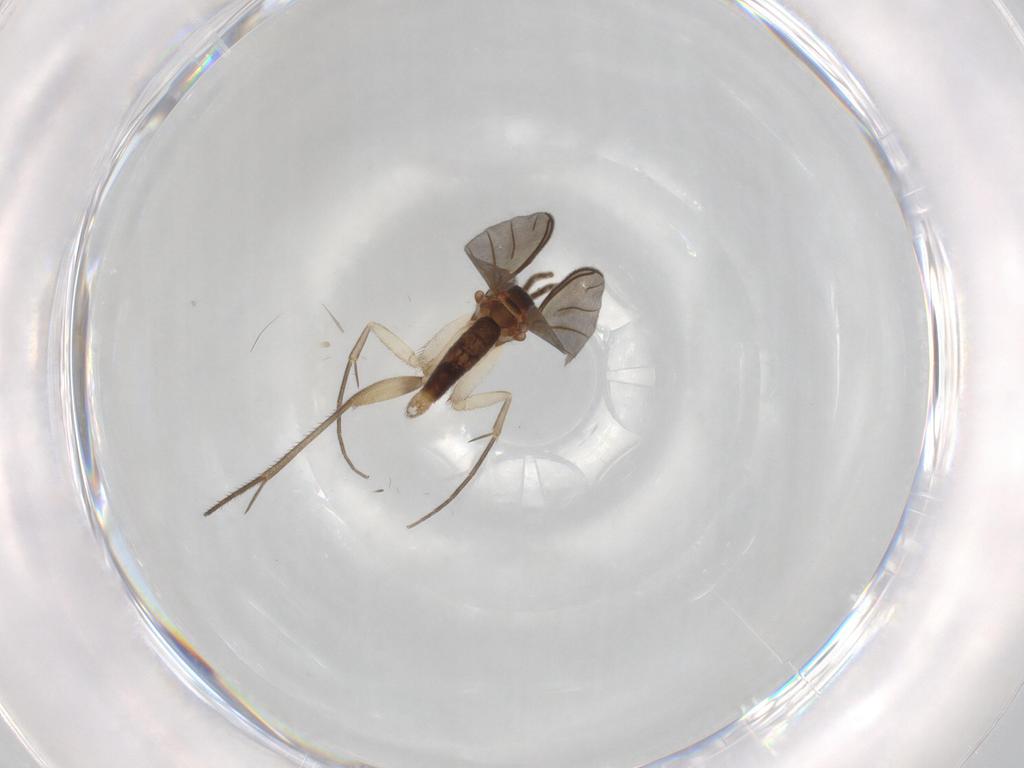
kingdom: Animalia
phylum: Arthropoda
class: Insecta
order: Diptera
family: Mycetophilidae
